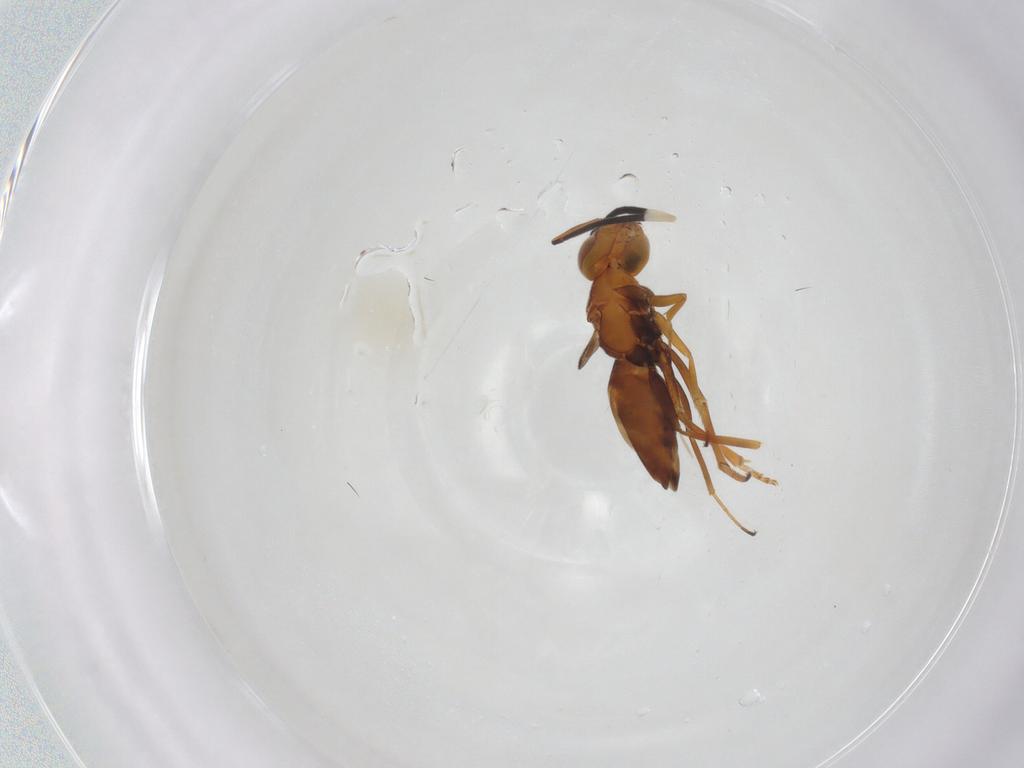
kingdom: Animalia
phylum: Arthropoda
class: Insecta
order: Hymenoptera
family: Encyrtidae
